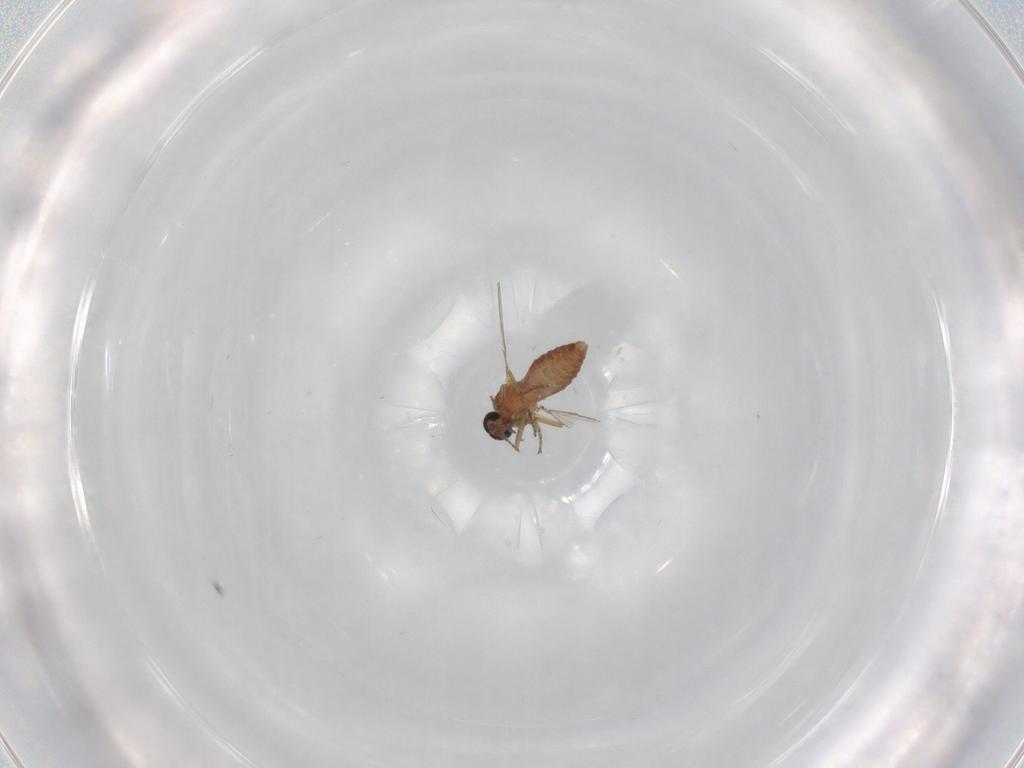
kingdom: Animalia
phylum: Arthropoda
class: Insecta
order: Diptera
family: Ceratopogonidae
